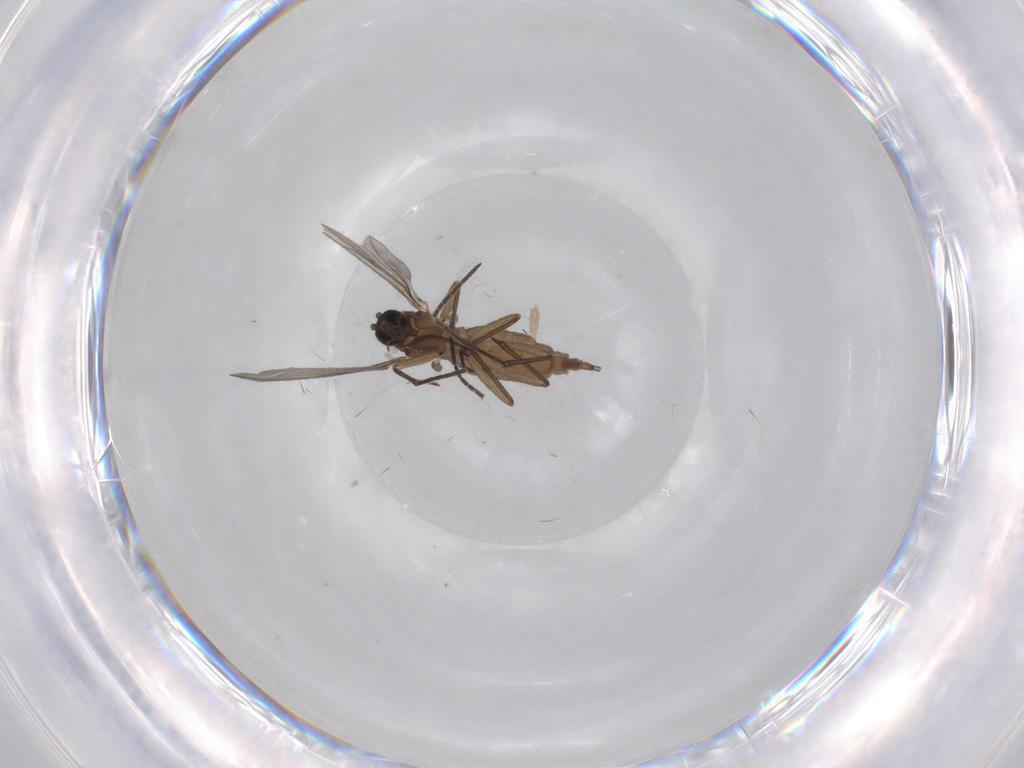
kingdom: Animalia
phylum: Arthropoda
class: Insecta
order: Diptera
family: Sciaridae
